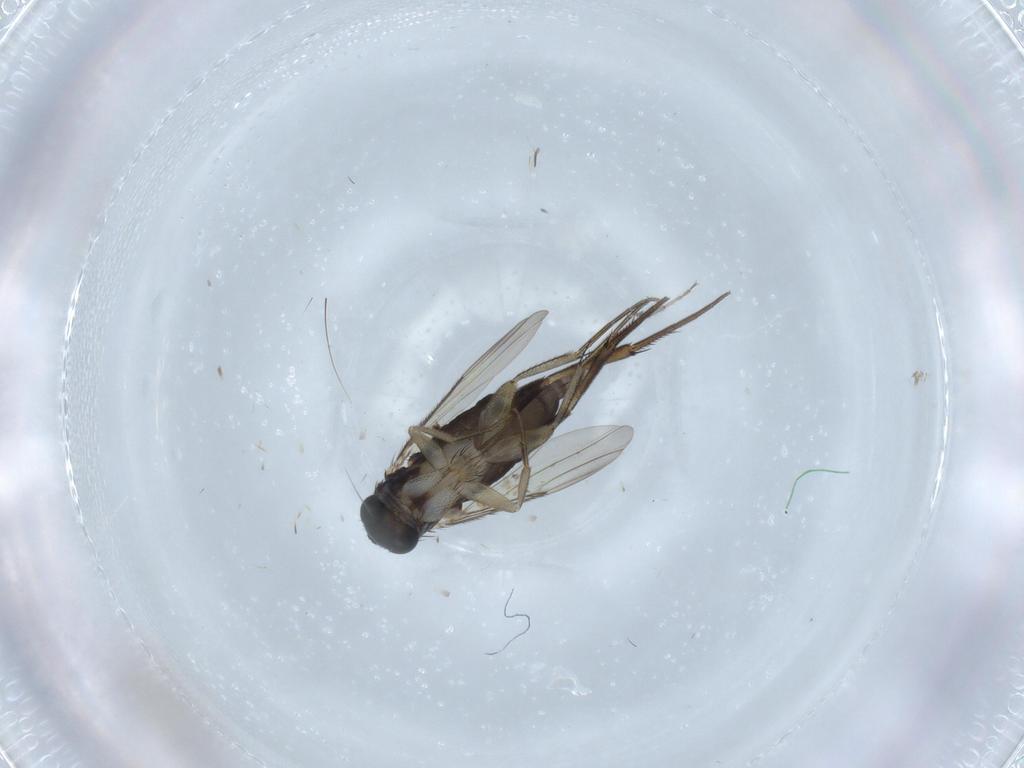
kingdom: Animalia
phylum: Arthropoda
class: Insecta
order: Diptera
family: Phoridae
